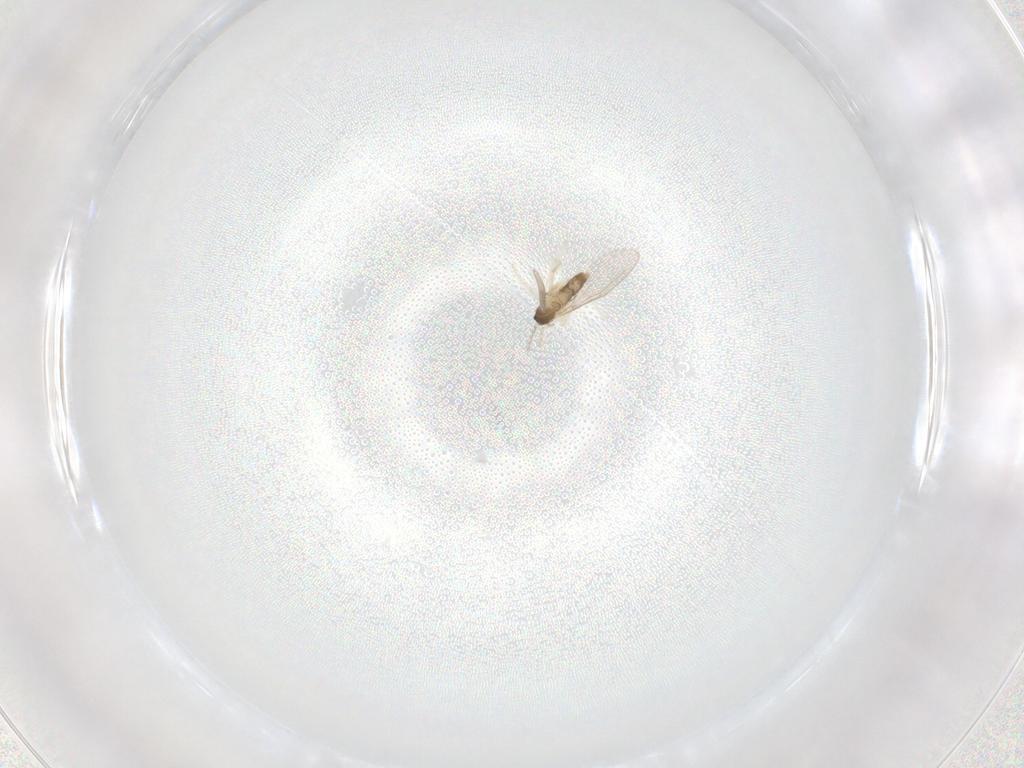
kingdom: Animalia
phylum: Arthropoda
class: Insecta
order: Diptera
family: Cecidomyiidae
